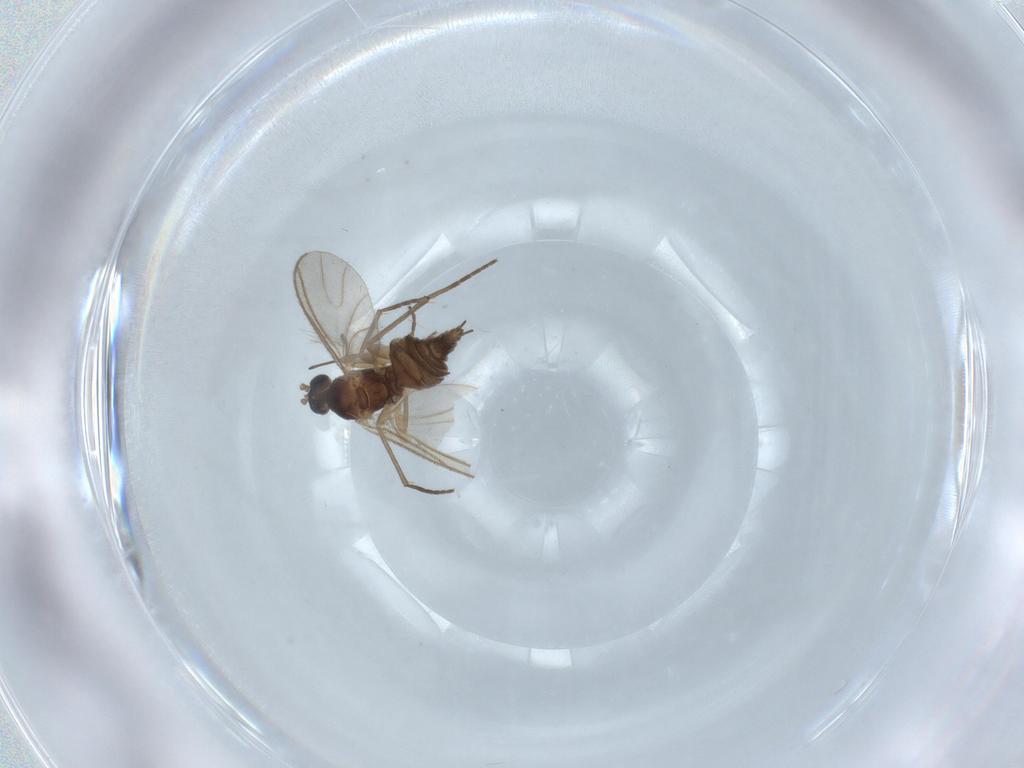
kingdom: Animalia
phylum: Arthropoda
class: Insecta
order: Diptera
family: Sciaridae
